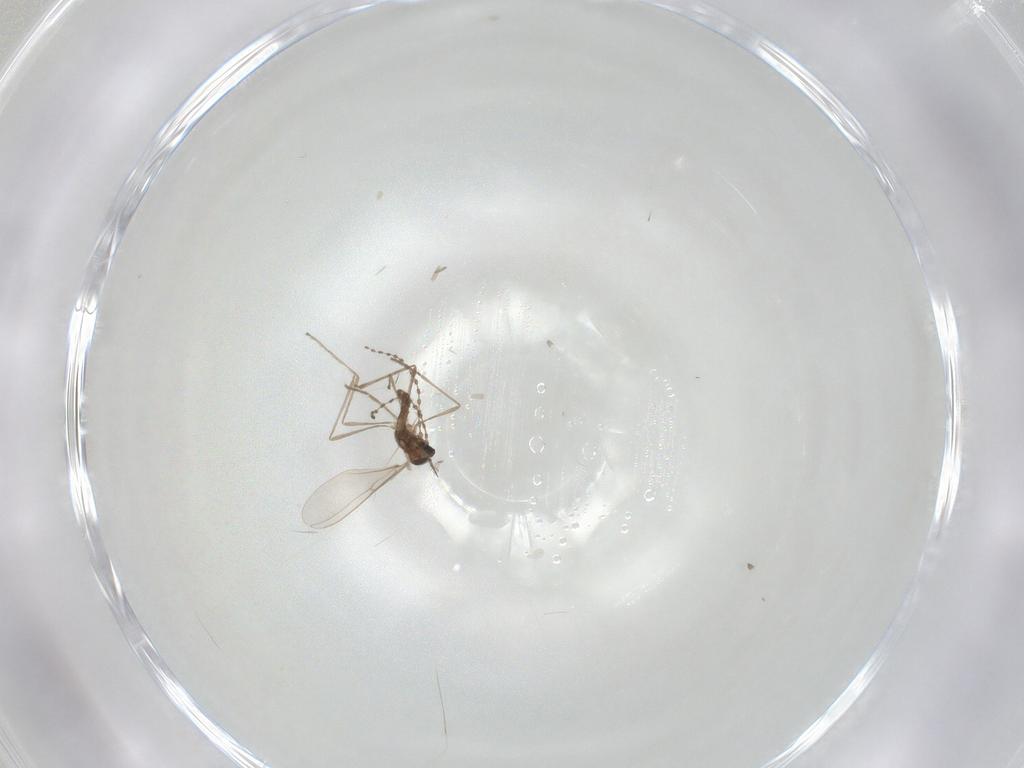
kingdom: Animalia
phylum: Arthropoda
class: Insecta
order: Diptera
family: Cecidomyiidae
